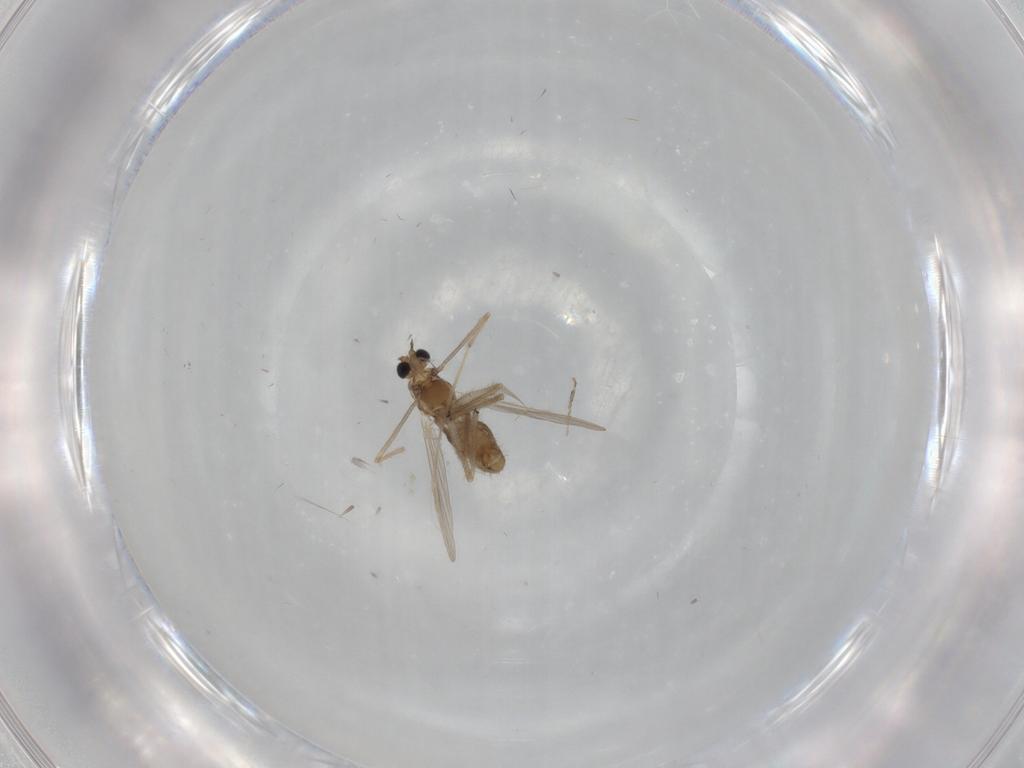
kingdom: Animalia
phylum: Arthropoda
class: Insecta
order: Diptera
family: Chironomidae
